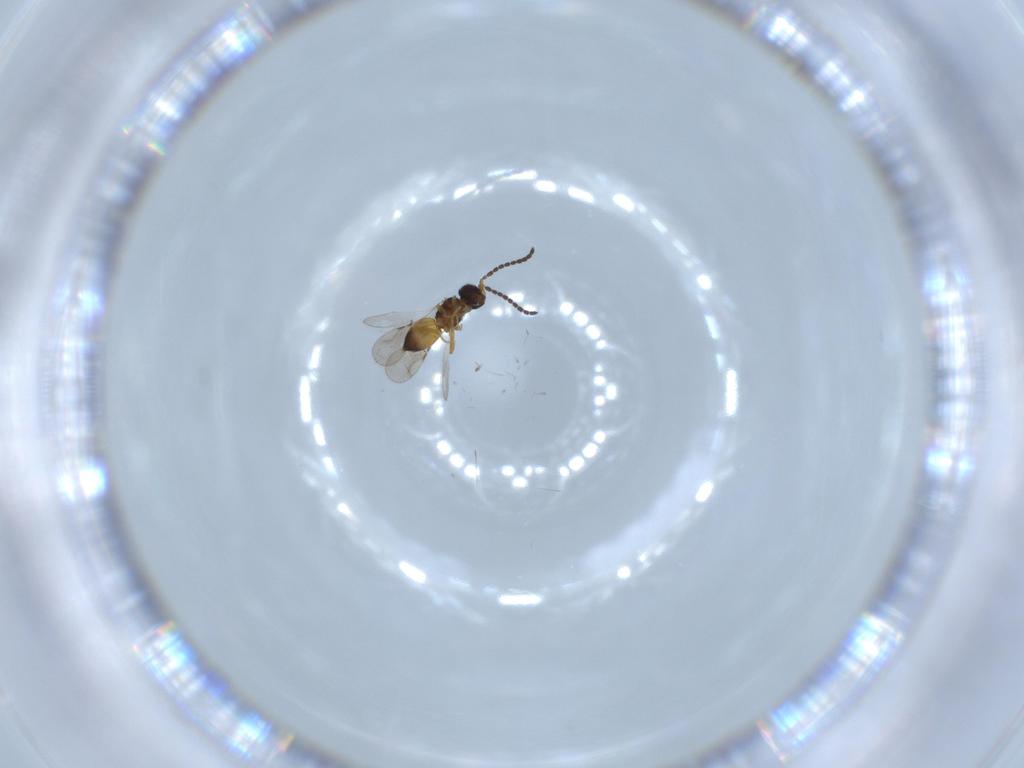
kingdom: Animalia
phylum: Arthropoda
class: Insecta
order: Hymenoptera
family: Ceraphronidae
